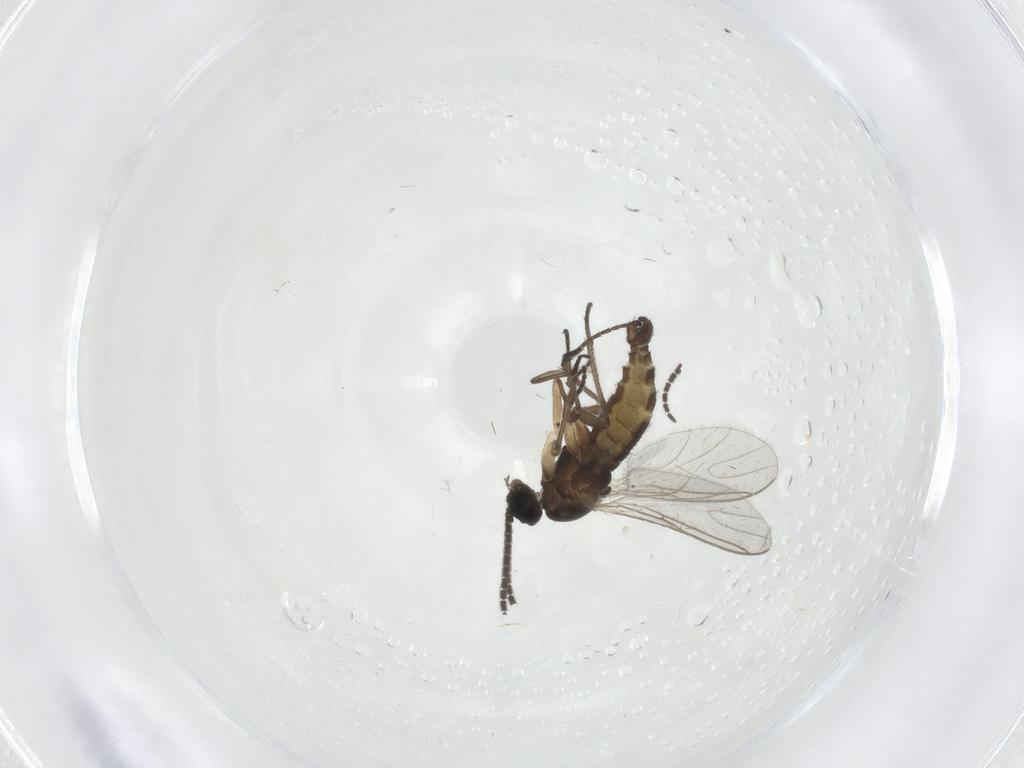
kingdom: Animalia
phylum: Arthropoda
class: Insecta
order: Diptera
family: Sciaridae
